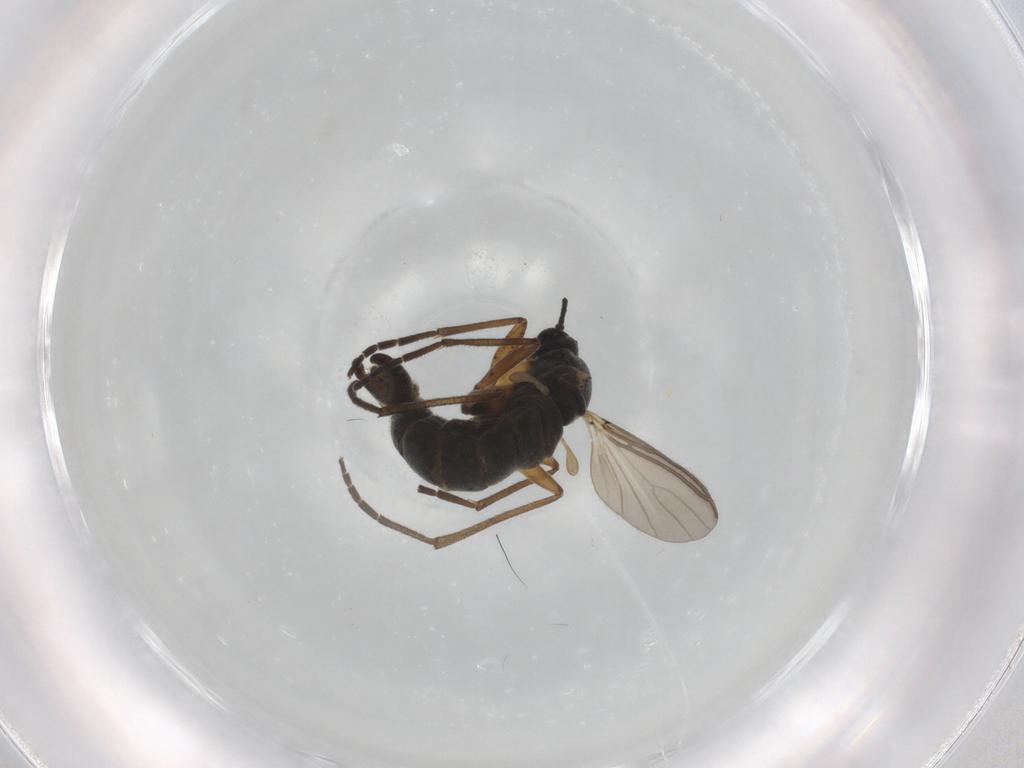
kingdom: Animalia
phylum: Arthropoda
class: Insecta
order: Diptera
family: Sciaridae
